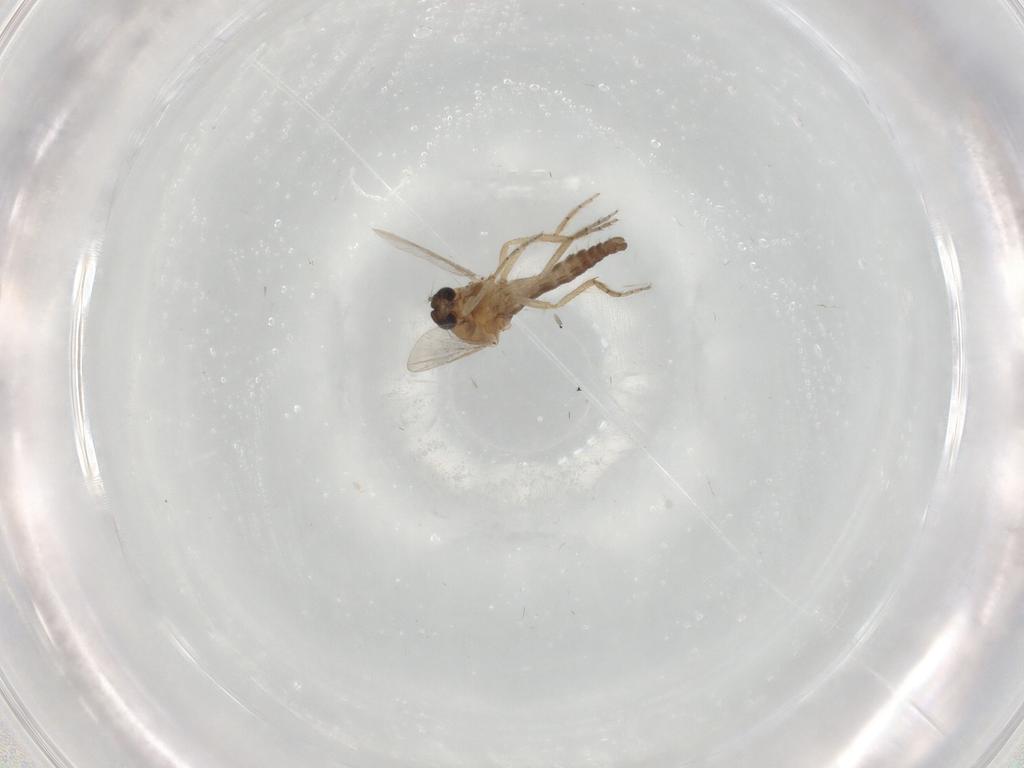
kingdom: Animalia
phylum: Arthropoda
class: Insecta
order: Diptera
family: Ceratopogonidae
